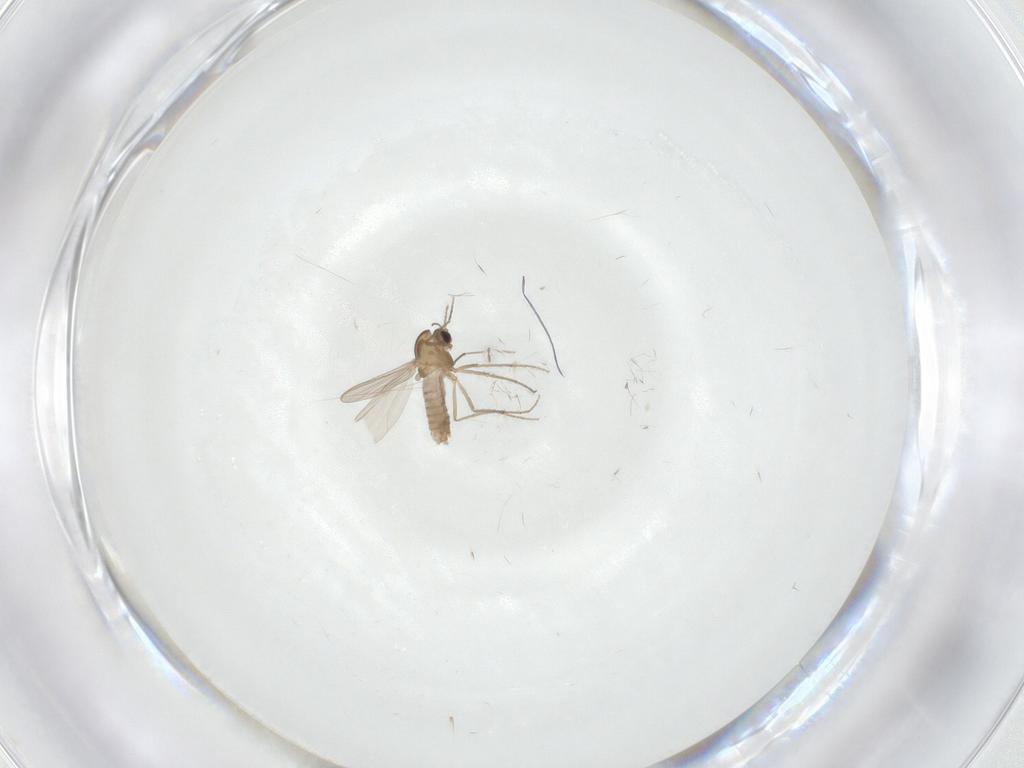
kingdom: Animalia
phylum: Arthropoda
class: Insecta
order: Diptera
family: Chironomidae
